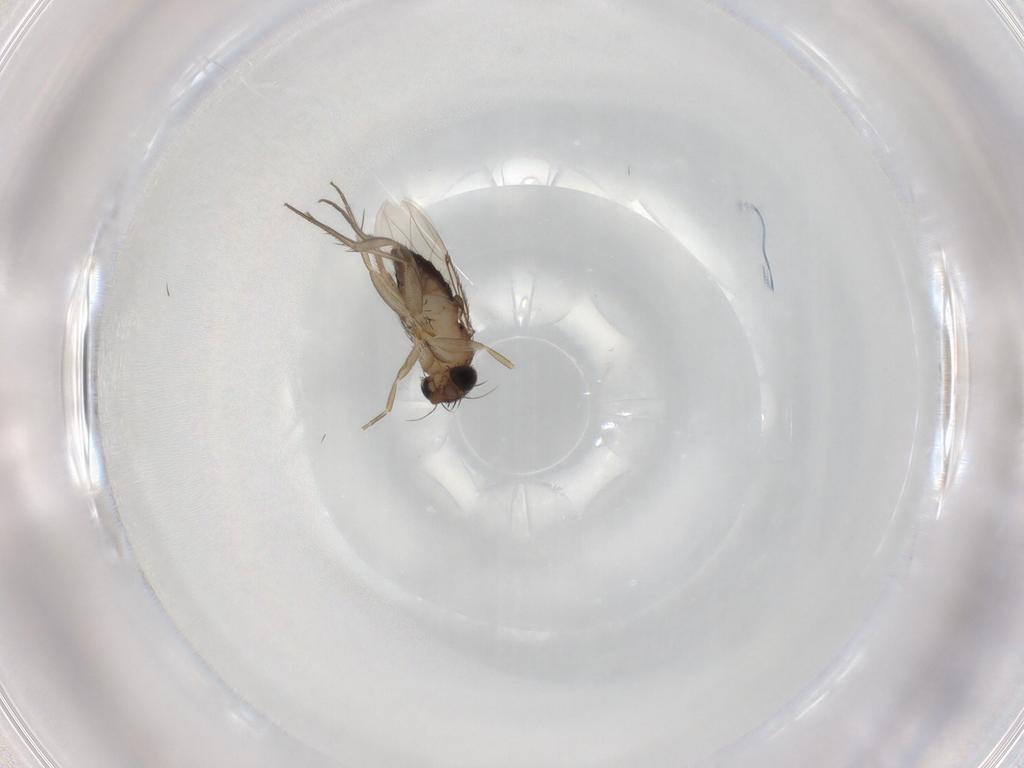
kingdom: Animalia
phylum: Arthropoda
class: Insecta
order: Diptera
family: Phoridae
